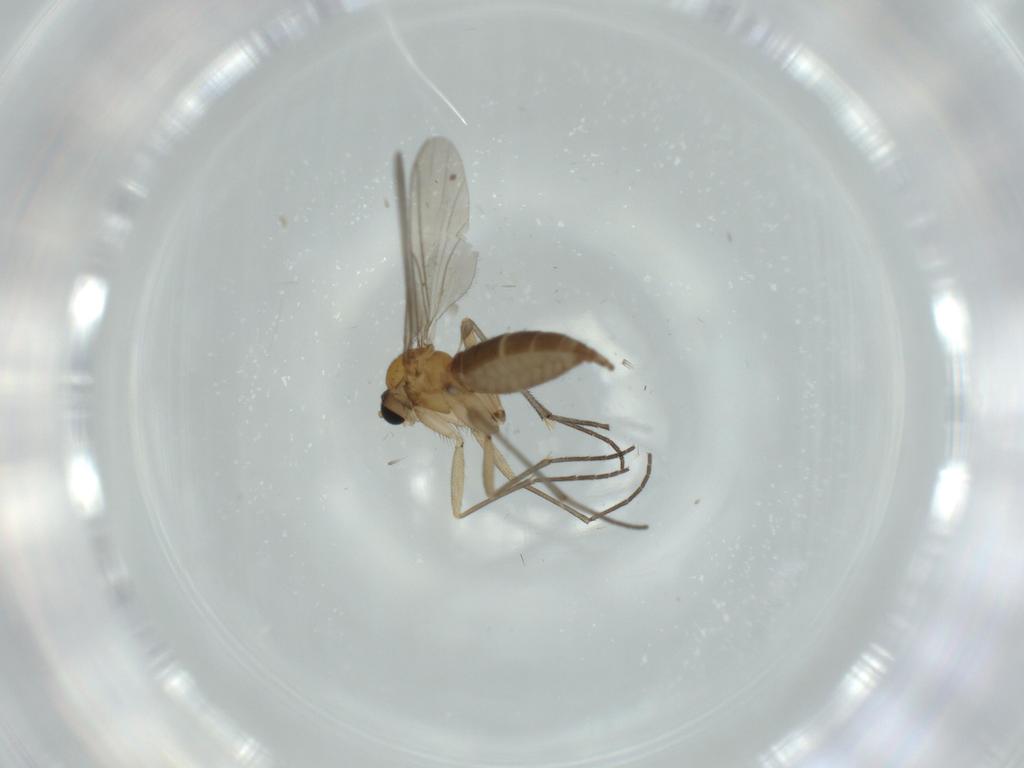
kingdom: Animalia
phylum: Arthropoda
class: Insecta
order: Diptera
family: Sciaridae
